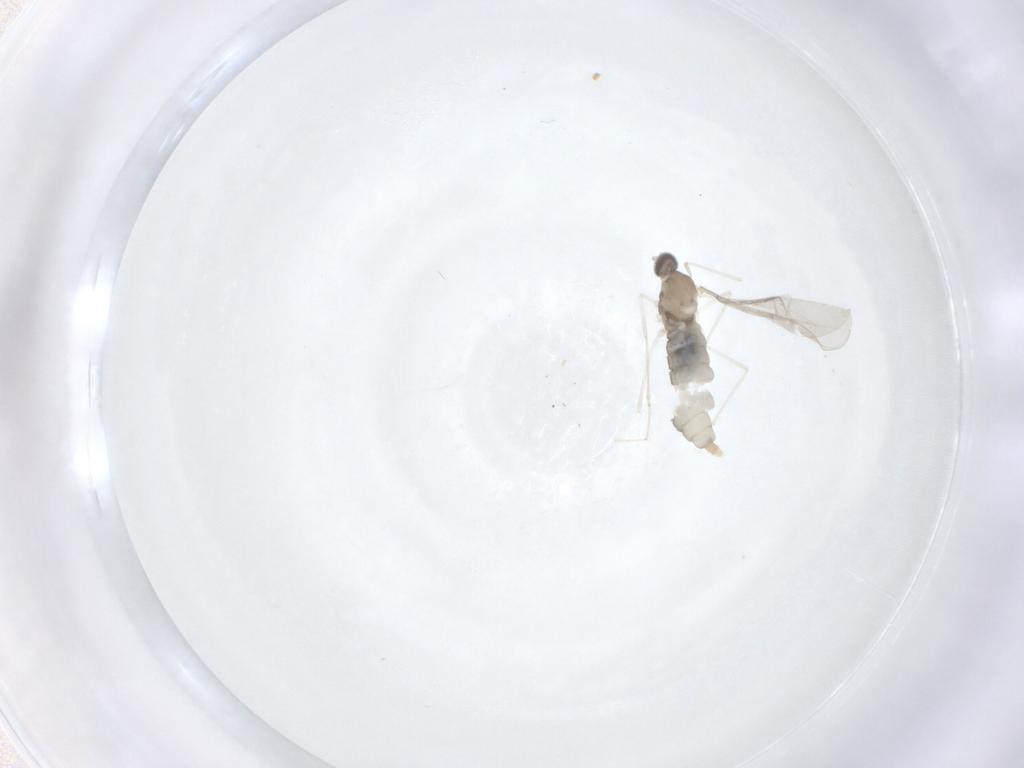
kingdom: Animalia
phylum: Arthropoda
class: Insecta
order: Diptera
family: Cecidomyiidae
